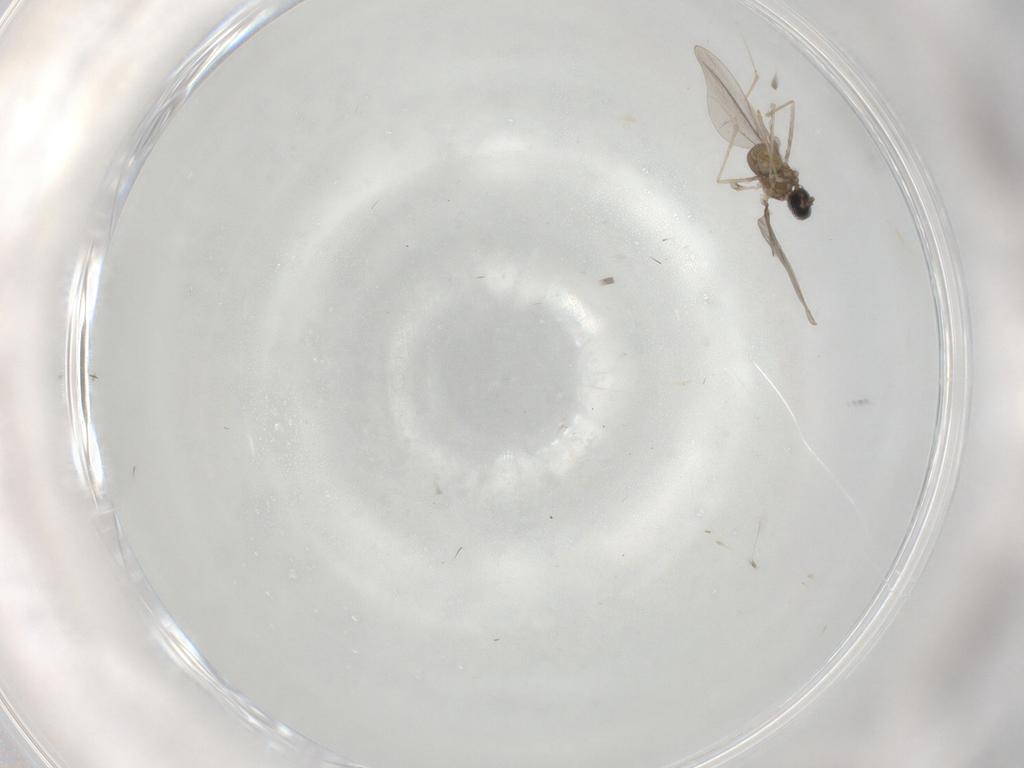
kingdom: Animalia
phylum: Arthropoda
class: Insecta
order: Diptera
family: Cecidomyiidae
